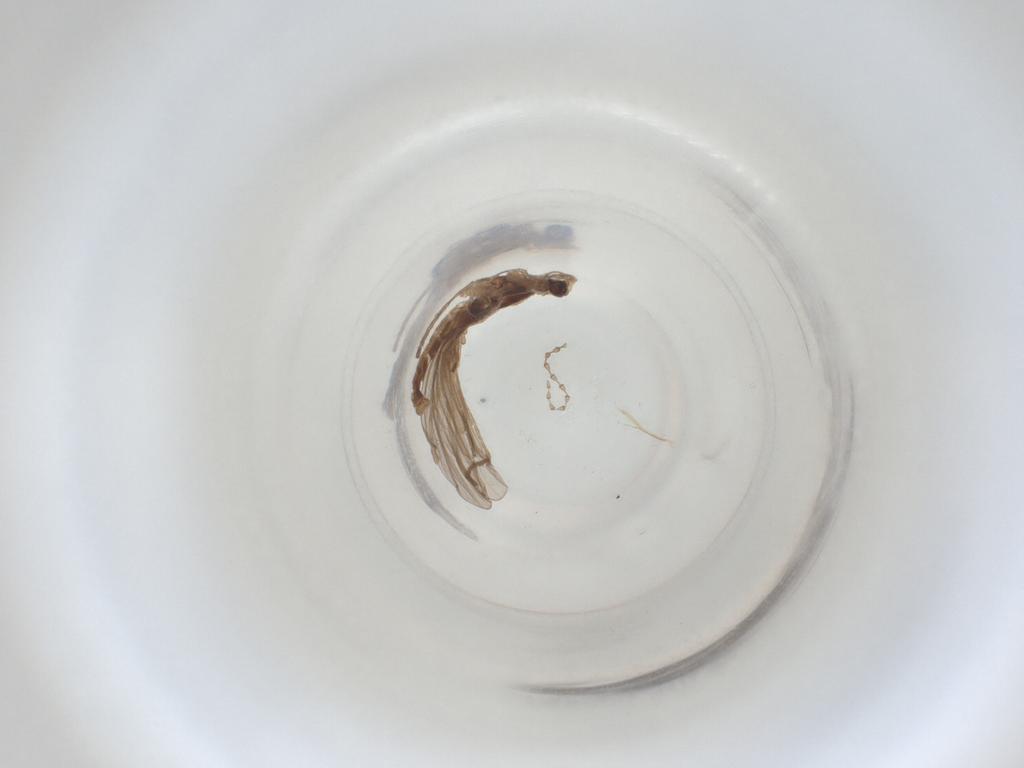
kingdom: Animalia
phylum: Arthropoda
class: Insecta
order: Diptera
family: Cecidomyiidae
